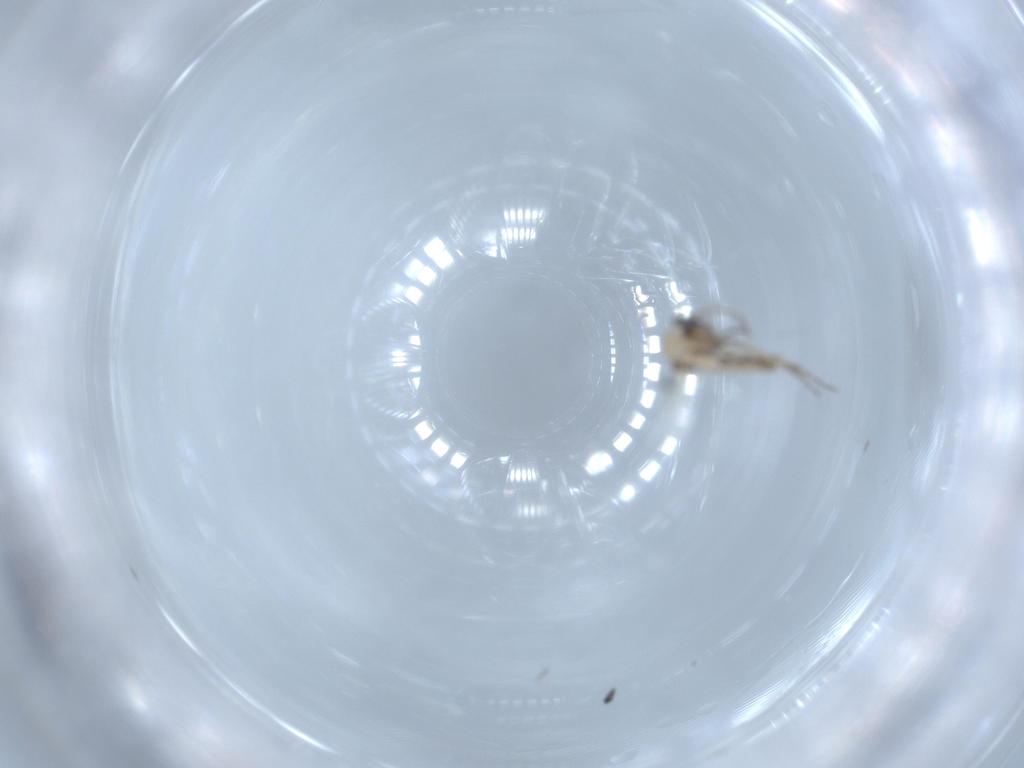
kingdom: Animalia
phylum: Arthropoda
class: Insecta
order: Diptera
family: Ceratopogonidae
